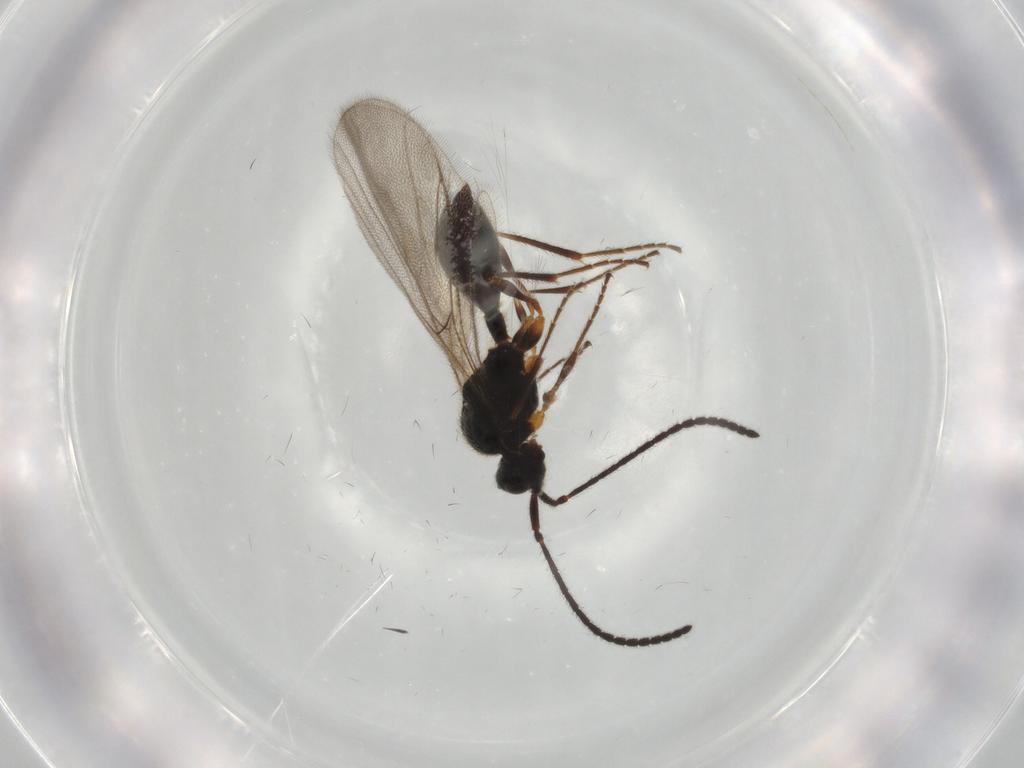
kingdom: Animalia
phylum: Arthropoda
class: Insecta
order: Hymenoptera
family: Diapriidae
